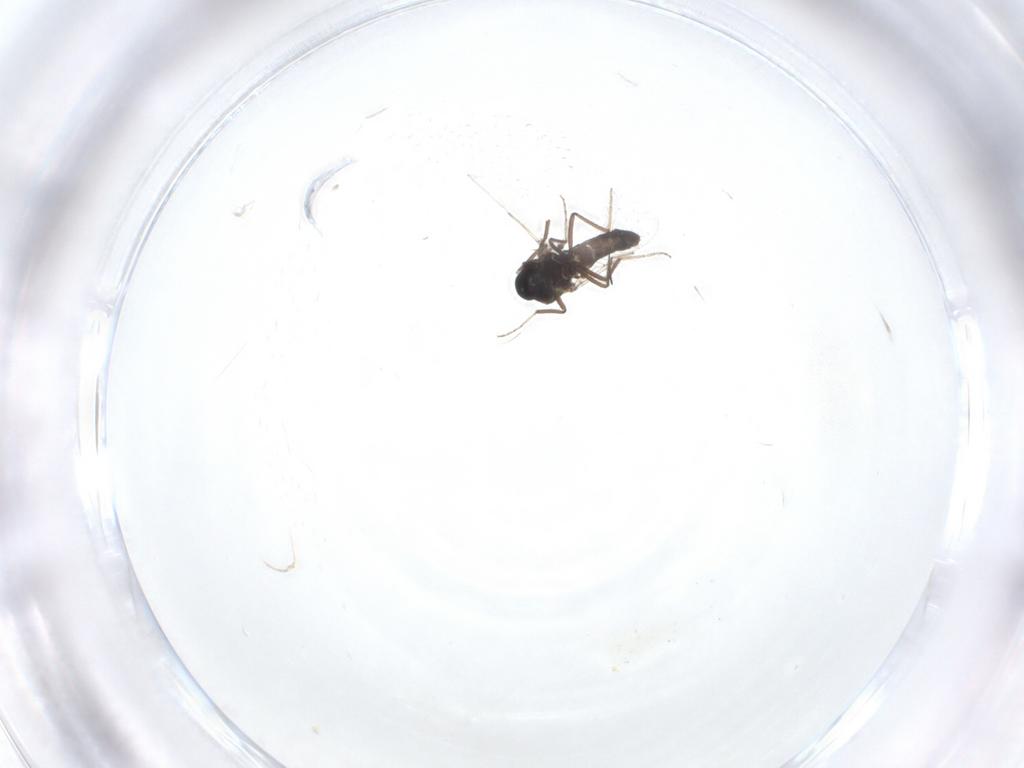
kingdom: Animalia
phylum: Arthropoda
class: Insecta
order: Diptera
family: Ceratopogonidae
